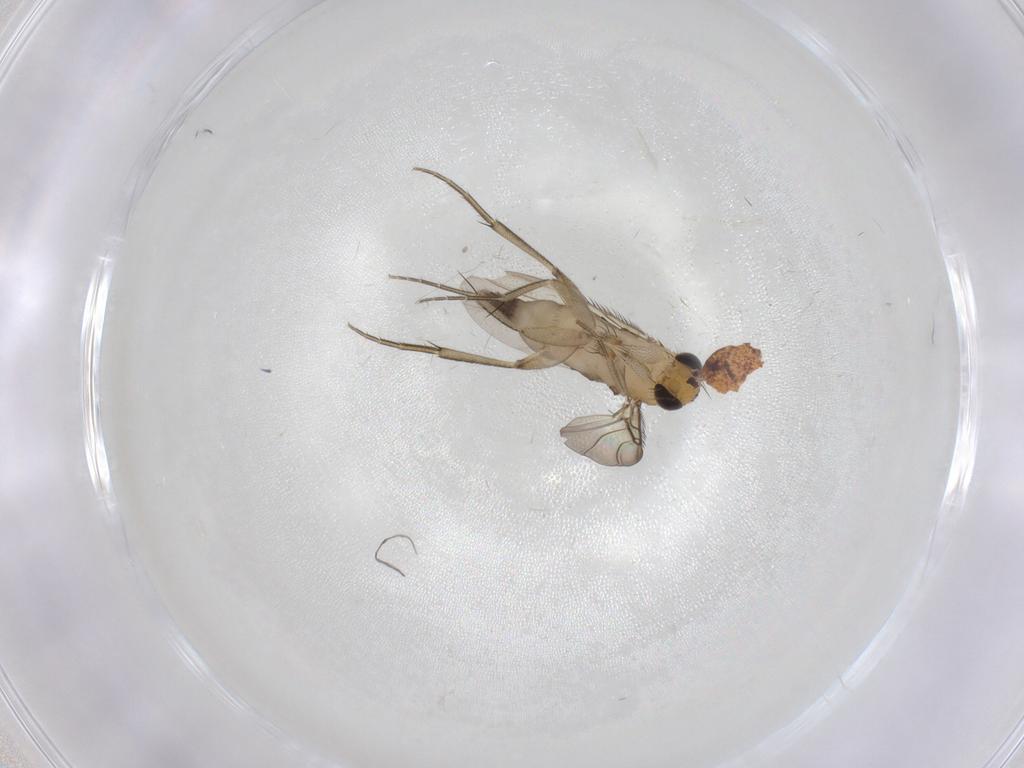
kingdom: Animalia
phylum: Arthropoda
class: Insecta
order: Diptera
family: Phoridae
